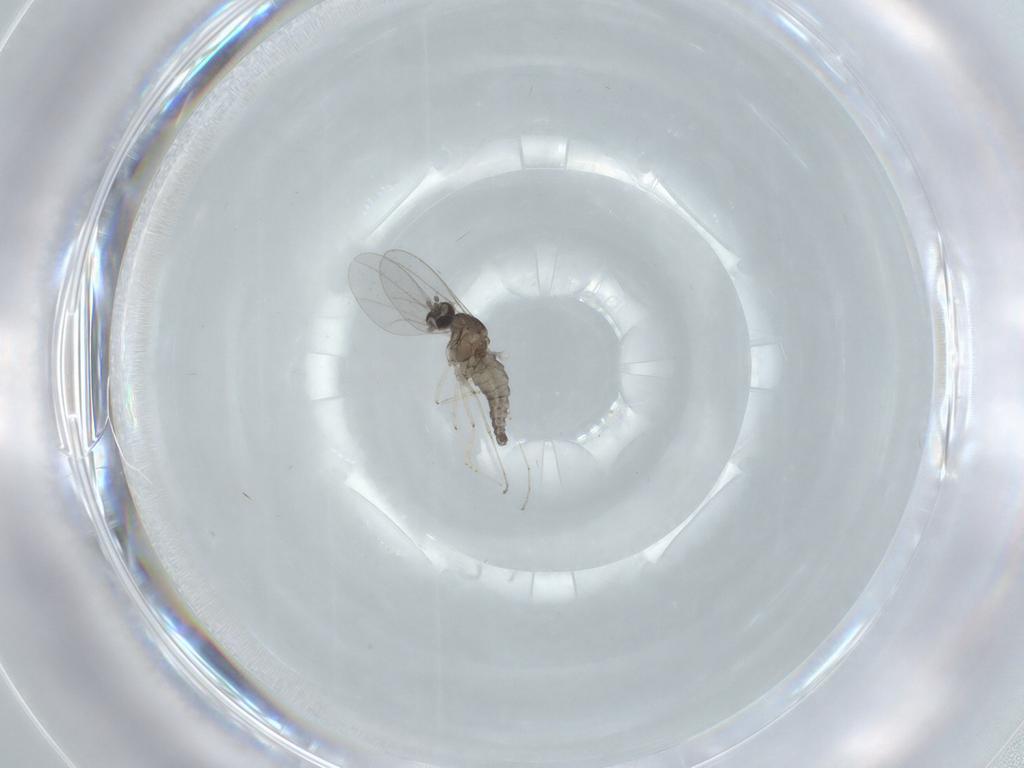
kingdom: Animalia
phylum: Arthropoda
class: Insecta
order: Diptera
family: Cecidomyiidae
